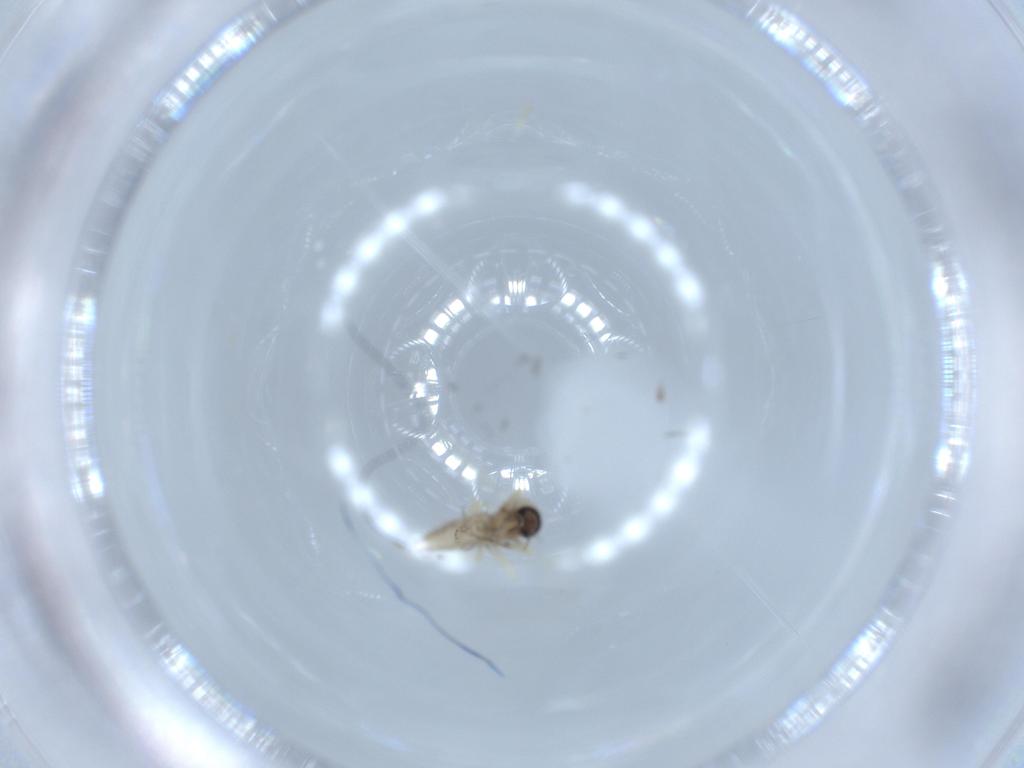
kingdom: Animalia
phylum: Arthropoda
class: Insecta
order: Diptera
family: Ceratopogonidae
